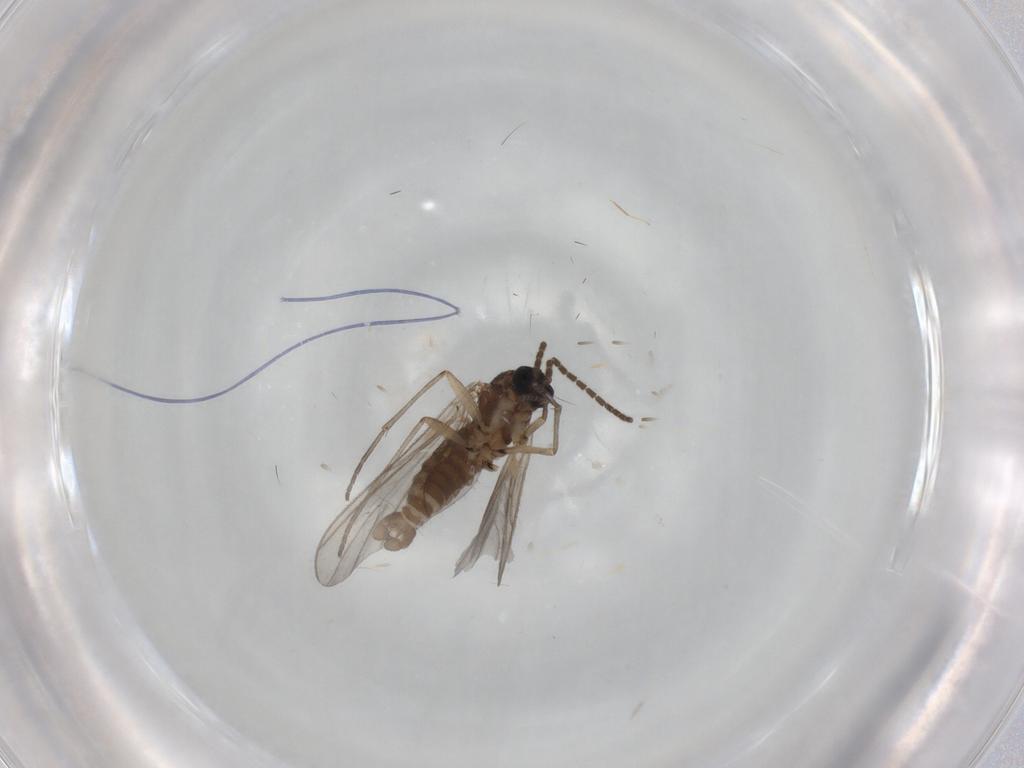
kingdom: Animalia
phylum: Arthropoda
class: Insecta
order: Diptera
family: Sciaridae
